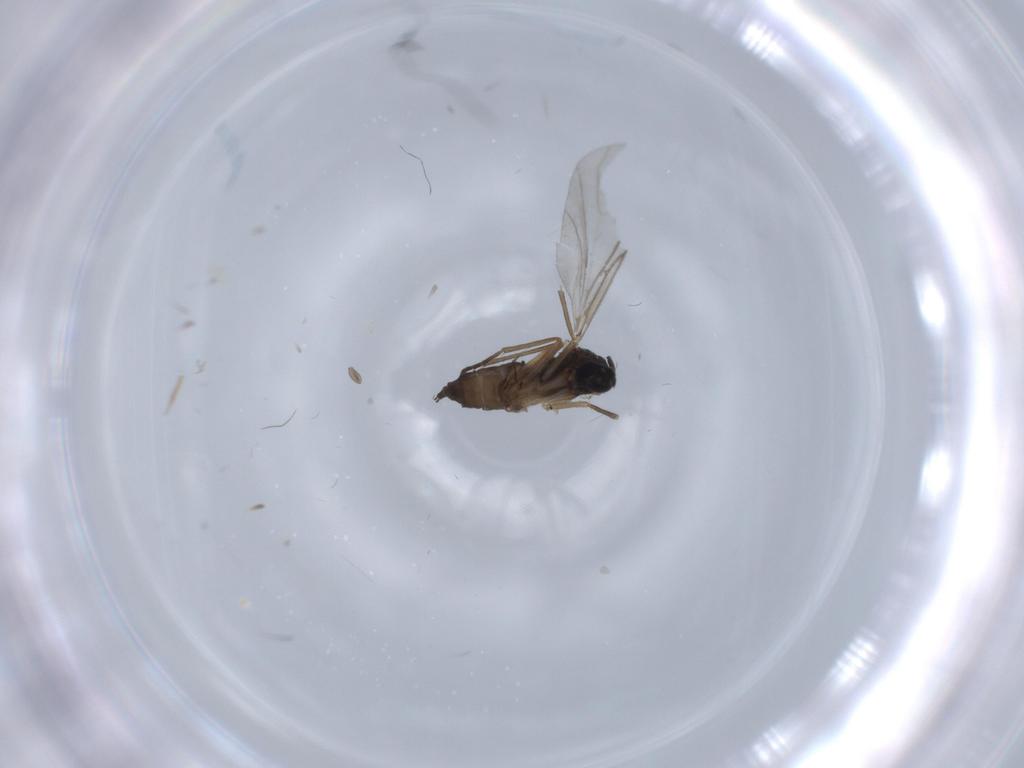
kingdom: Animalia
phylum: Arthropoda
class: Insecta
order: Diptera
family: Sciaridae
